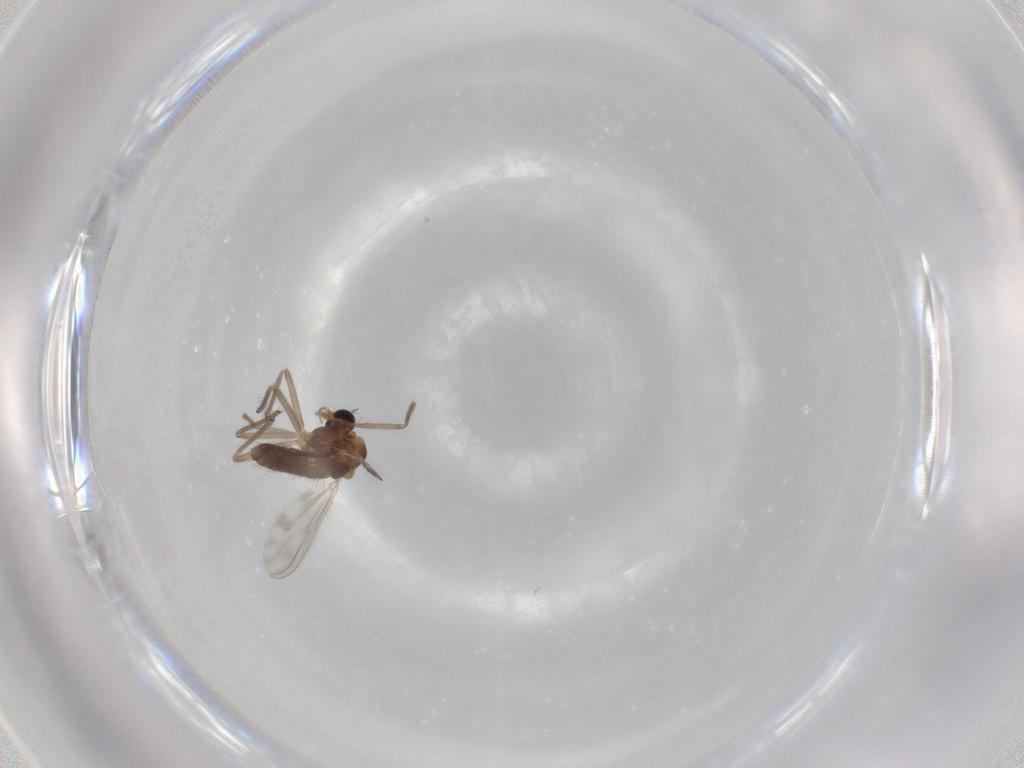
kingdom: Animalia
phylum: Arthropoda
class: Insecta
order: Diptera
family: Chironomidae
